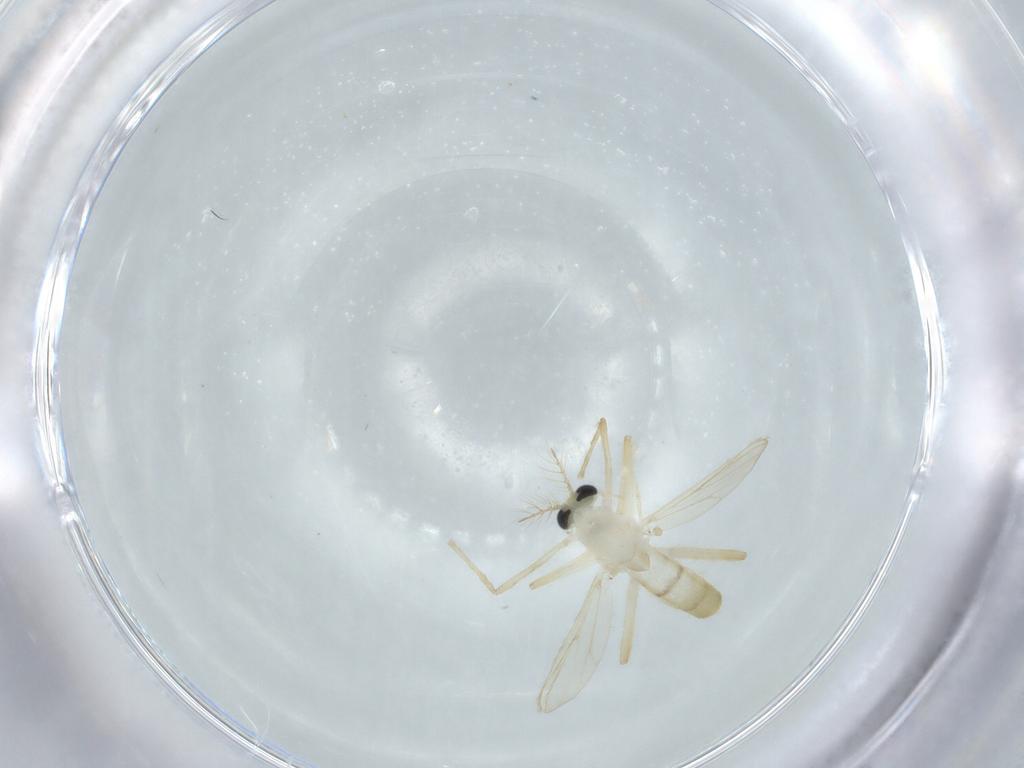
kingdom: Animalia
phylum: Arthropoda
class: Insecta
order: Diptera
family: Chironomidae
